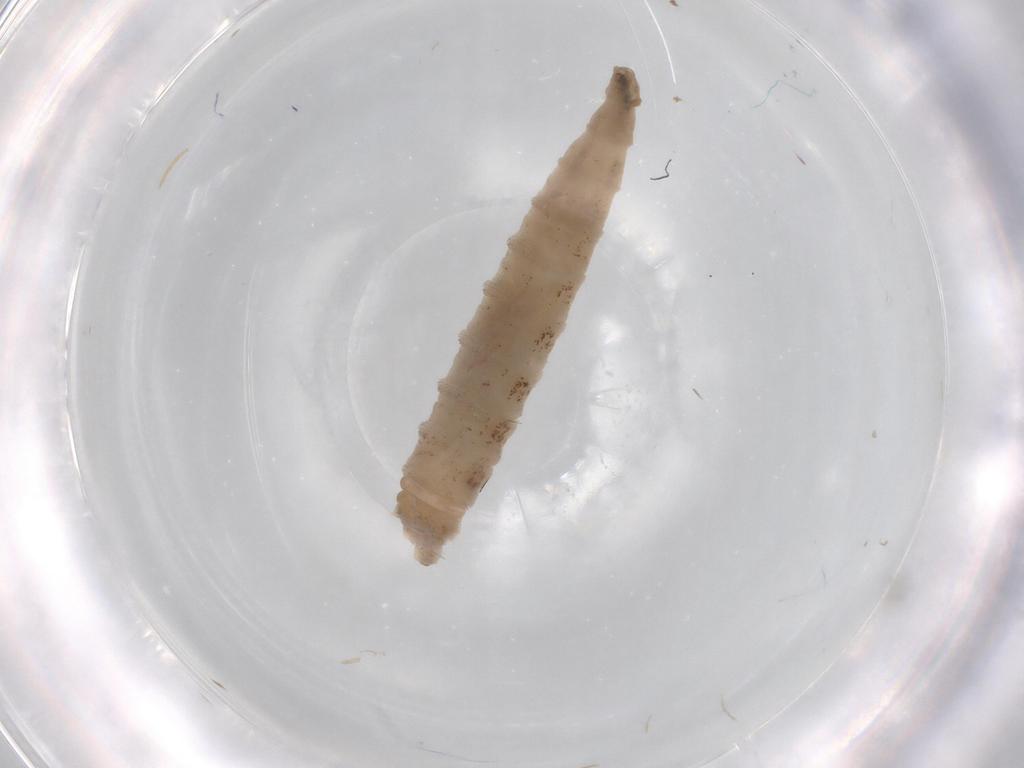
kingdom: Animalia
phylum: Arthropoda
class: Insecta
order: Diptera
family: Drosophilidae
